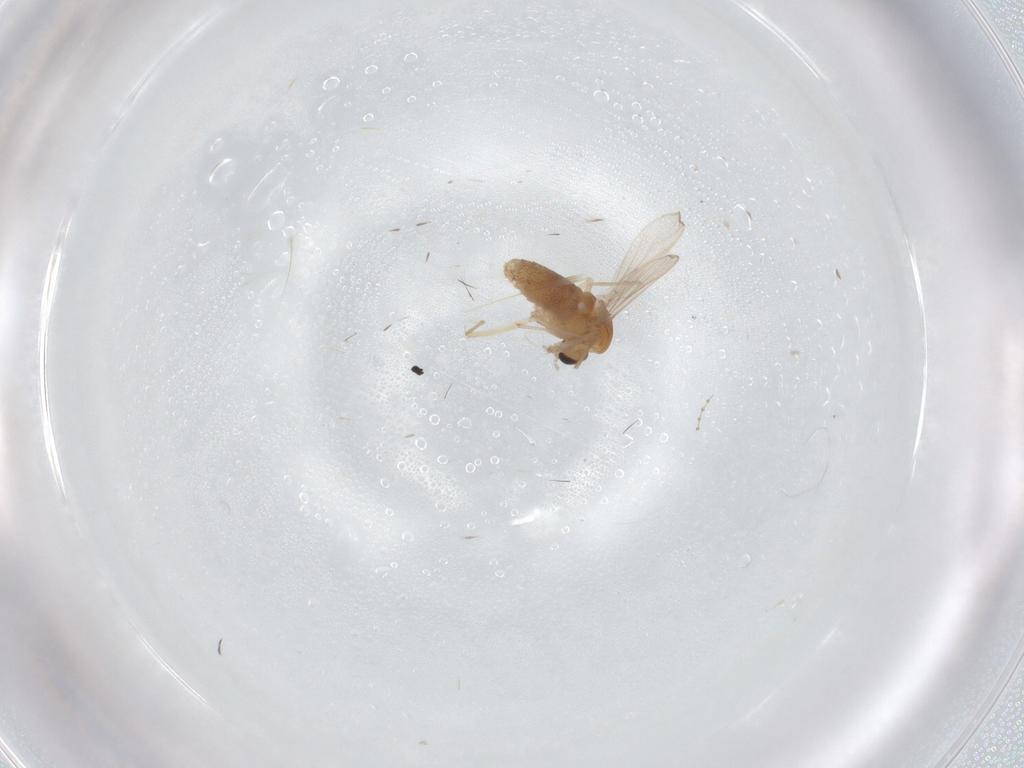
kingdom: Animalia
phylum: Arthropoda
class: Insecta
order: Diptera
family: Chironomidae
